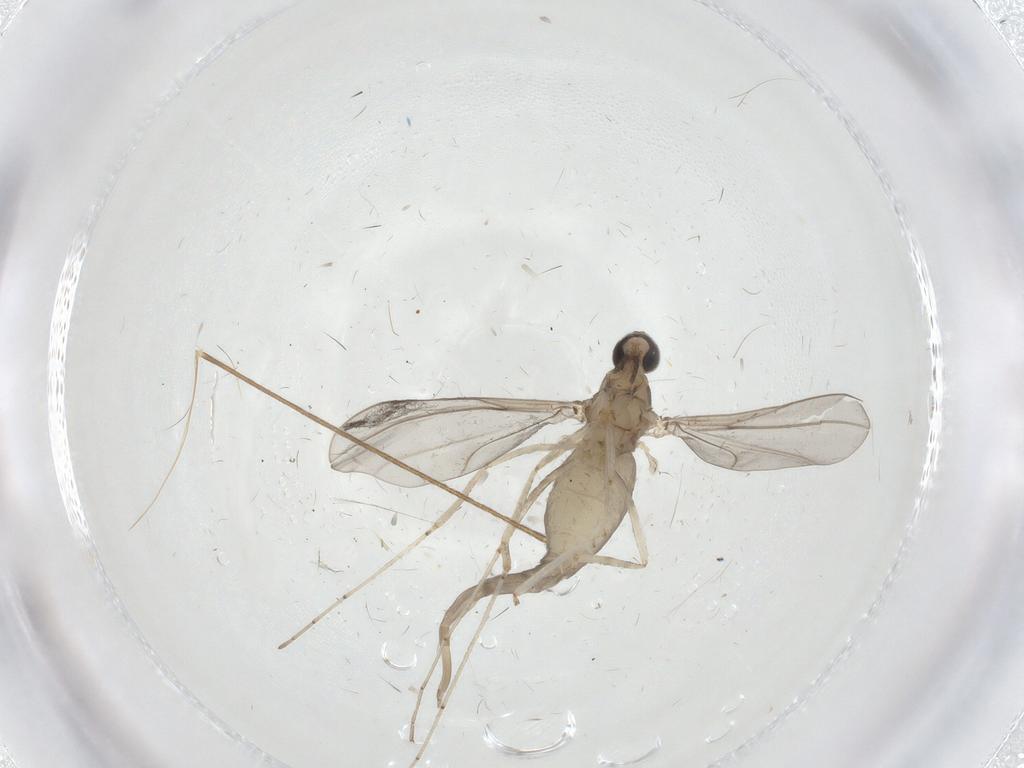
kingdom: Animalia
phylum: Arthropoda
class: Insecta
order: Diptera
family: Cecidomyiidae
